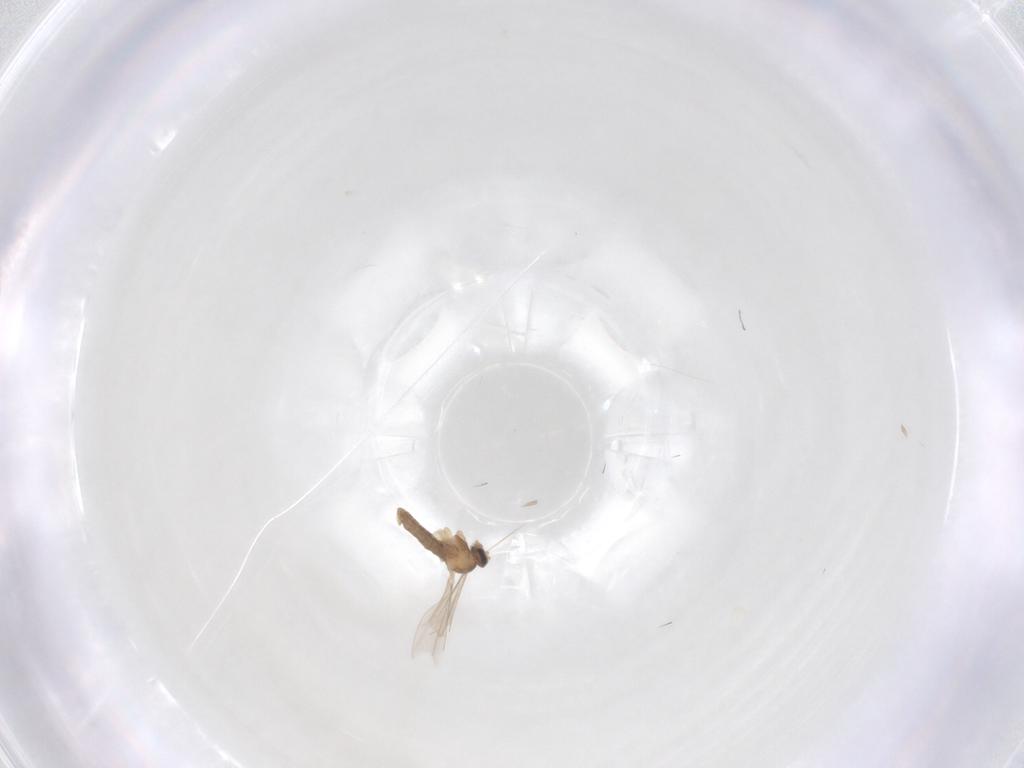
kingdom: Animalia
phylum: Arthropoda
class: Insecta
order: Diptera
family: Cecidomyiidae
